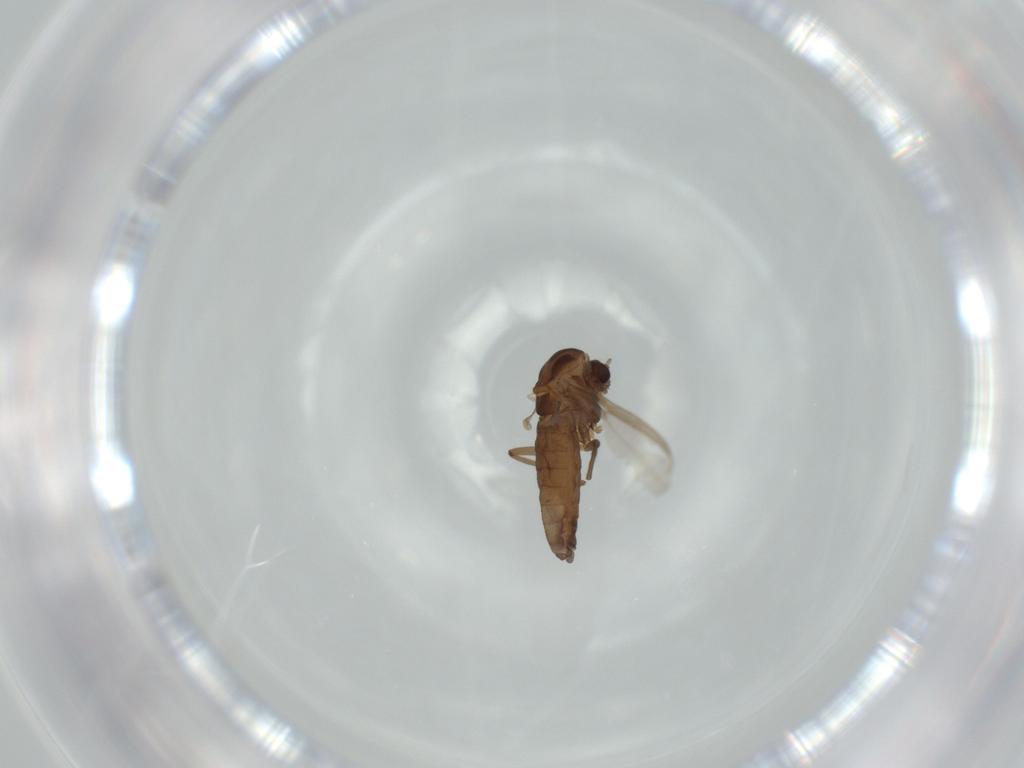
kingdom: Animalia
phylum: Arthropoda
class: Insecta
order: Diptera
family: Chironomidae
